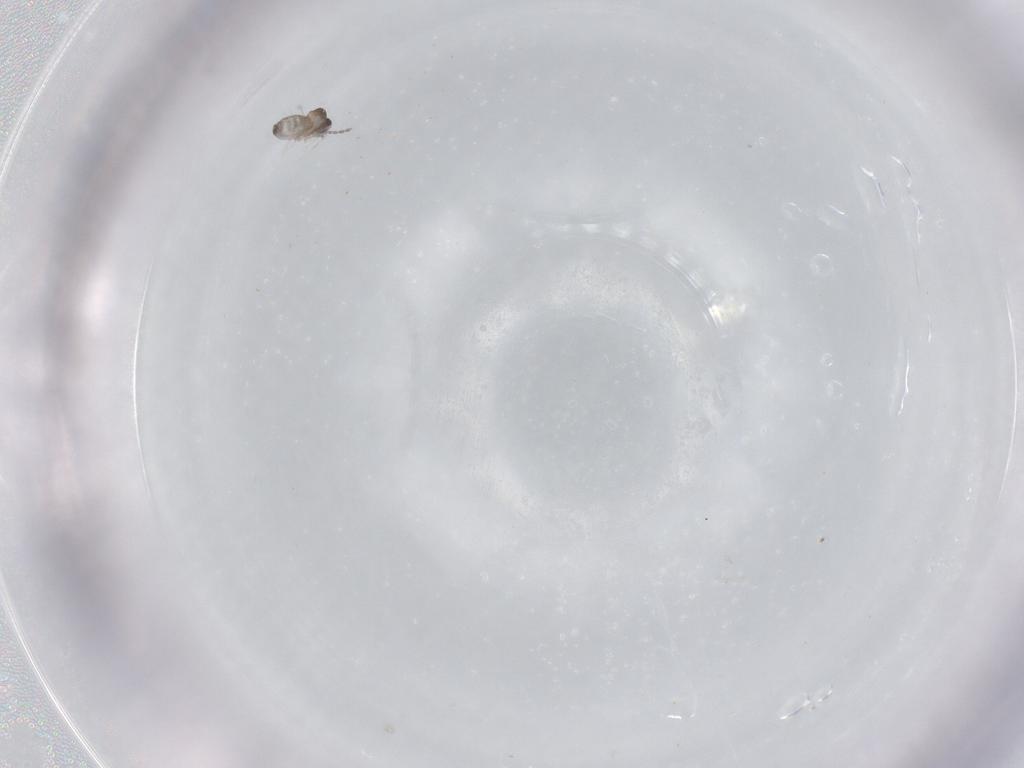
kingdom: Animalia
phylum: Arthropoda
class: Insecta
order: Diptera
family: Cecidomyiidae
